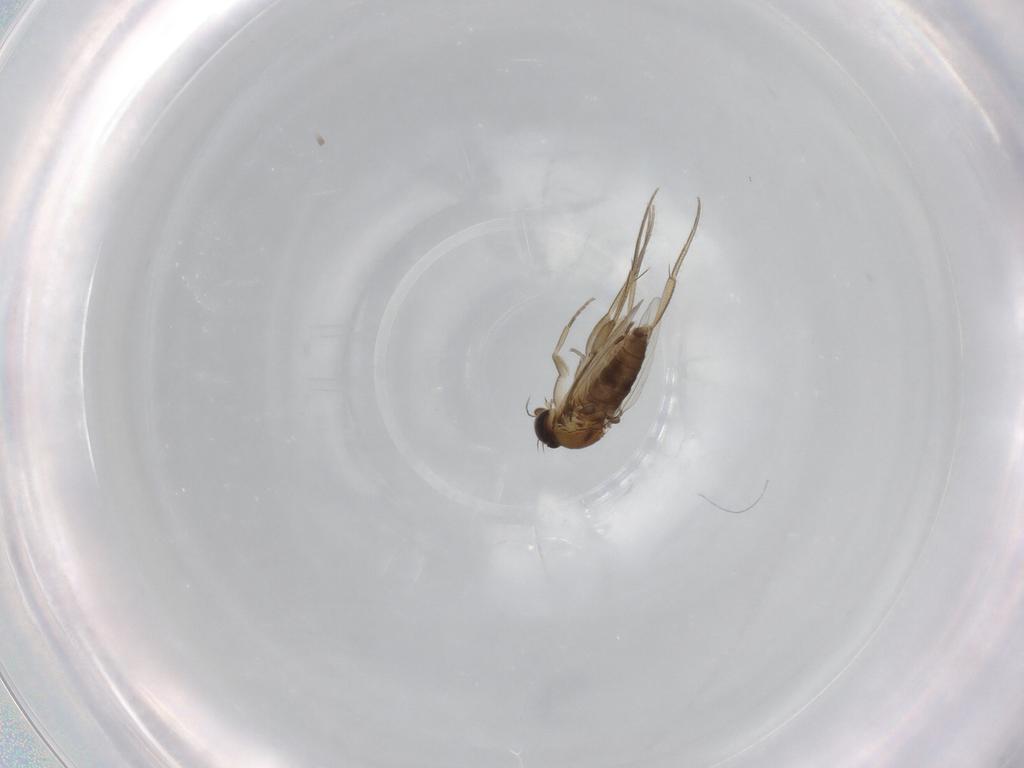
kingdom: Animalia
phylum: Arthropoda
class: Insecta
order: Diptera
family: Phoridae
